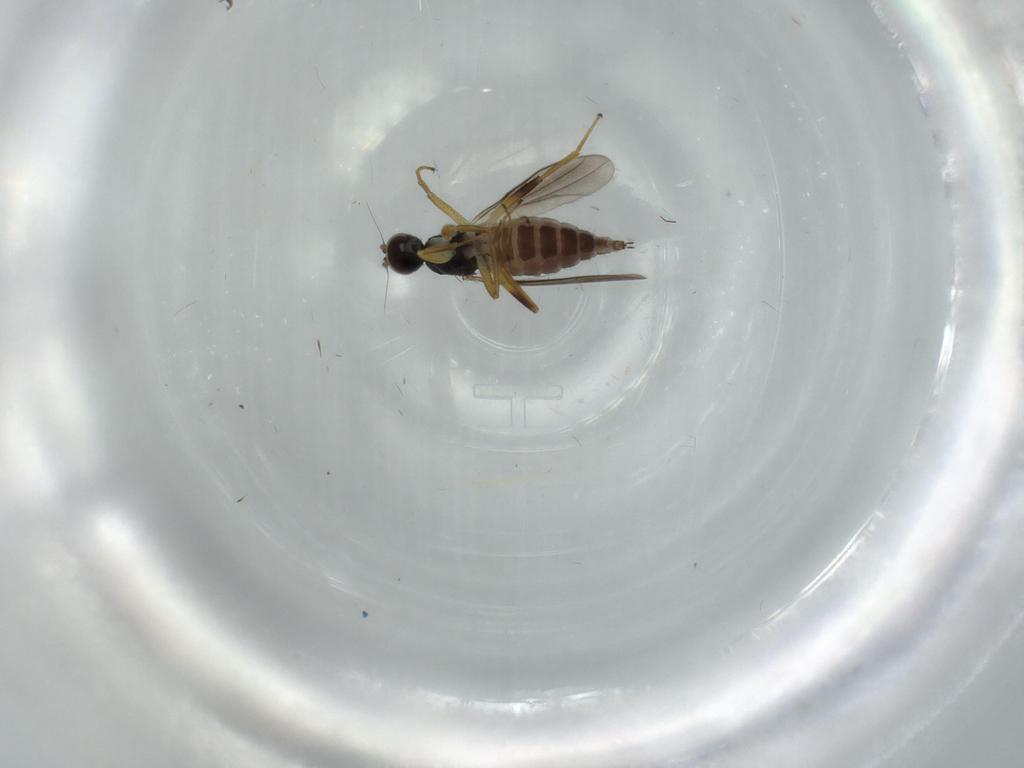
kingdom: Animalia
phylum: Arthropoda
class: Insecta
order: Diptera
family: Hybotidae
